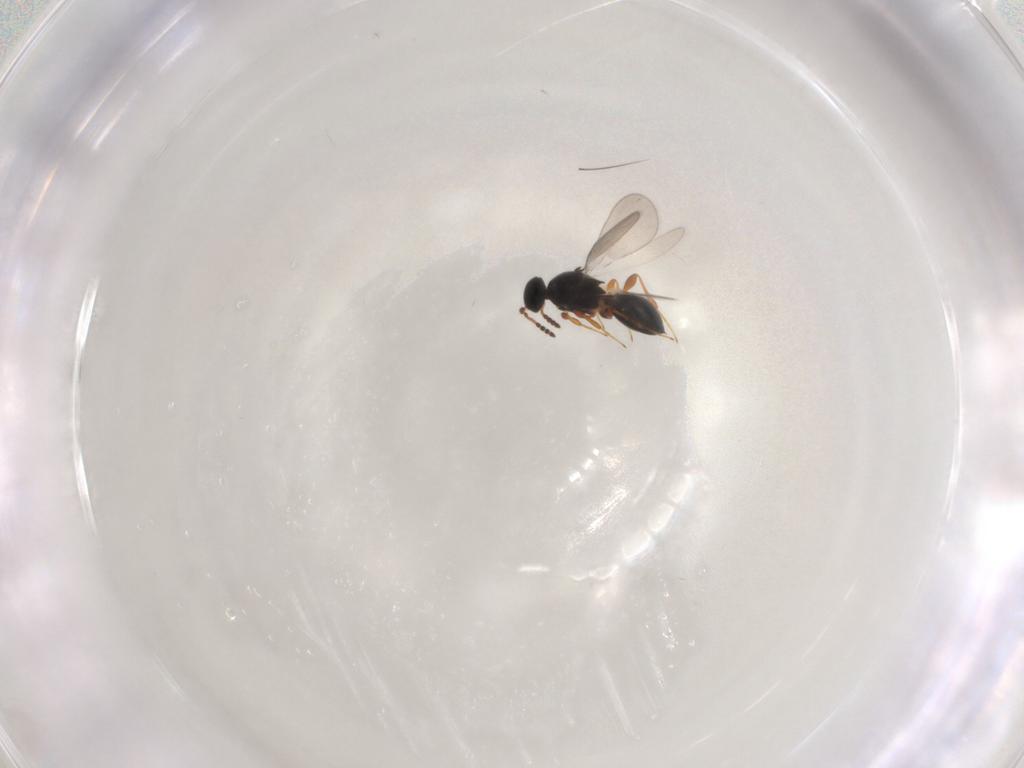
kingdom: Animalia
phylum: Arthropoda
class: Insecta
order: Hymenoptera
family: Platygastridae
